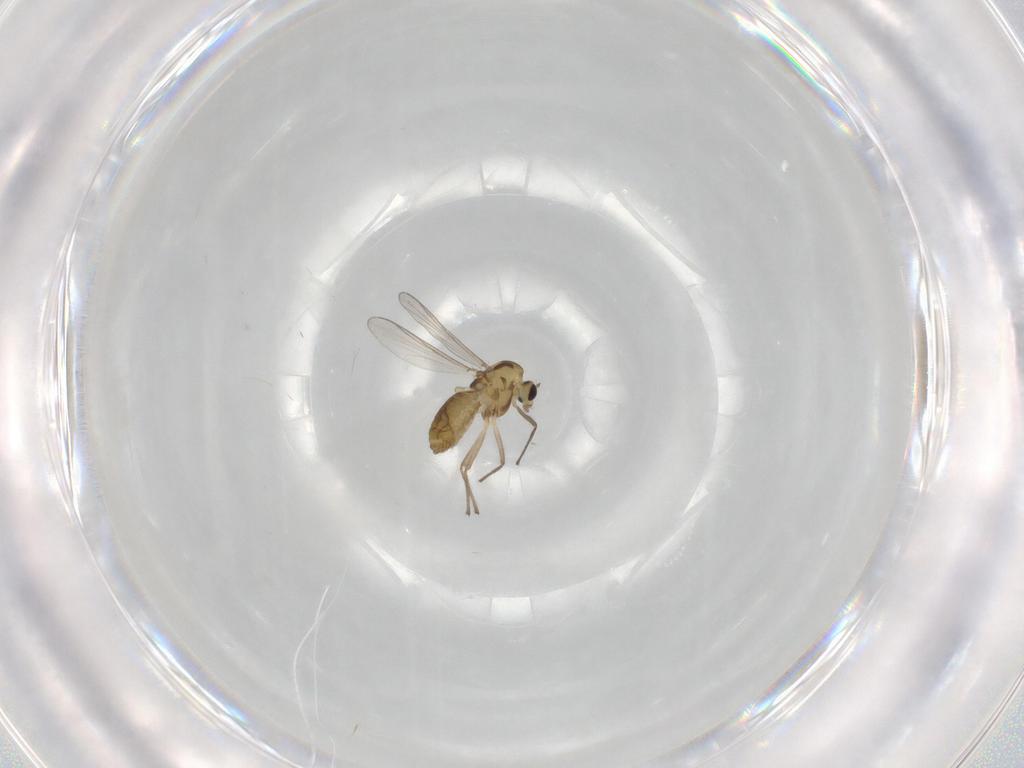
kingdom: Animalia
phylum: Arthropoda
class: Insecta
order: Diptera
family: Chironomidae
